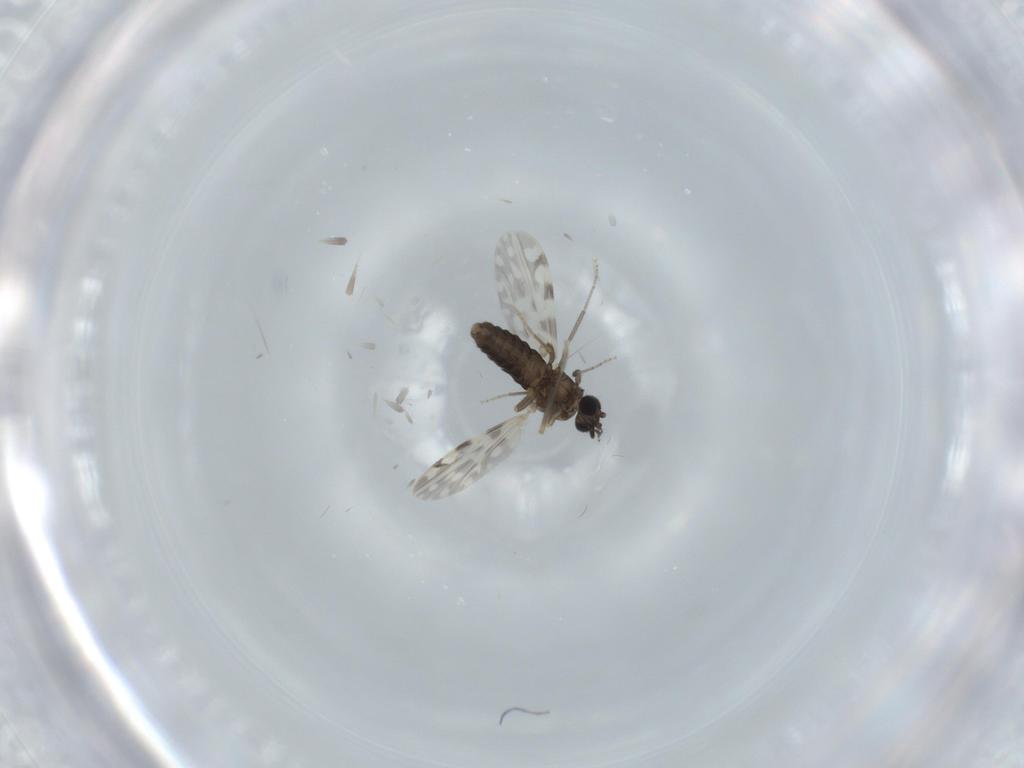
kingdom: Animalia
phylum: Arthropoda
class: Insecta
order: Diptera
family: Ceratopogonidae
